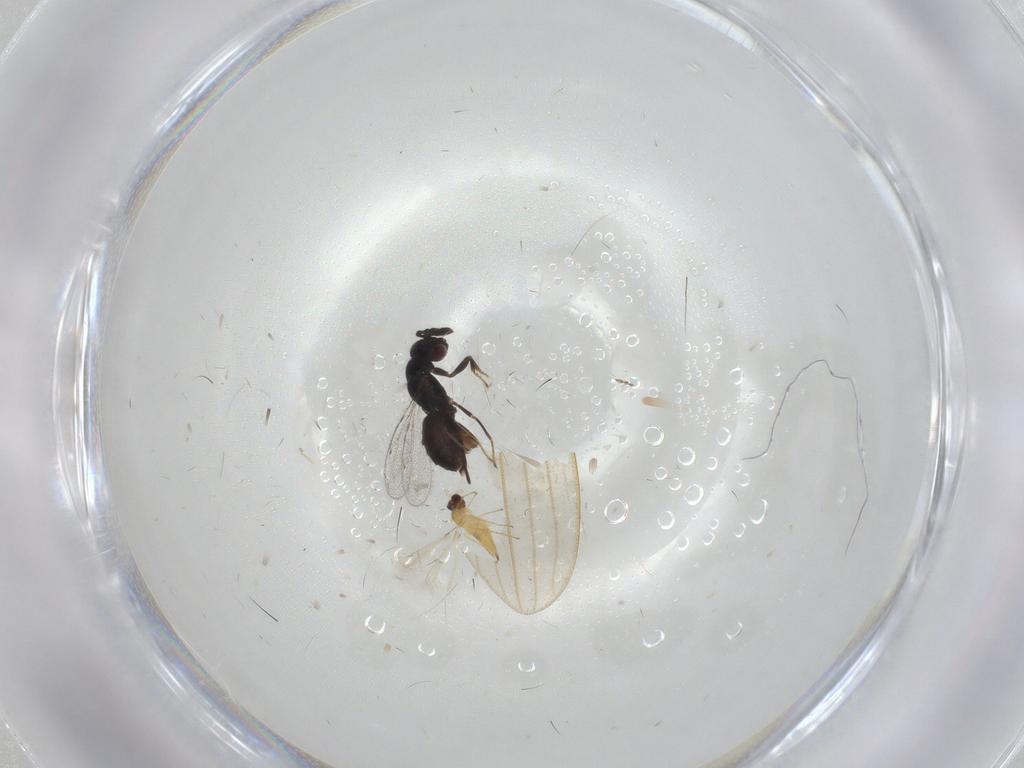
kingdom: Animalia
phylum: Arthropoda
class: Insecta
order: Hymenoptera
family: Mymaridae
